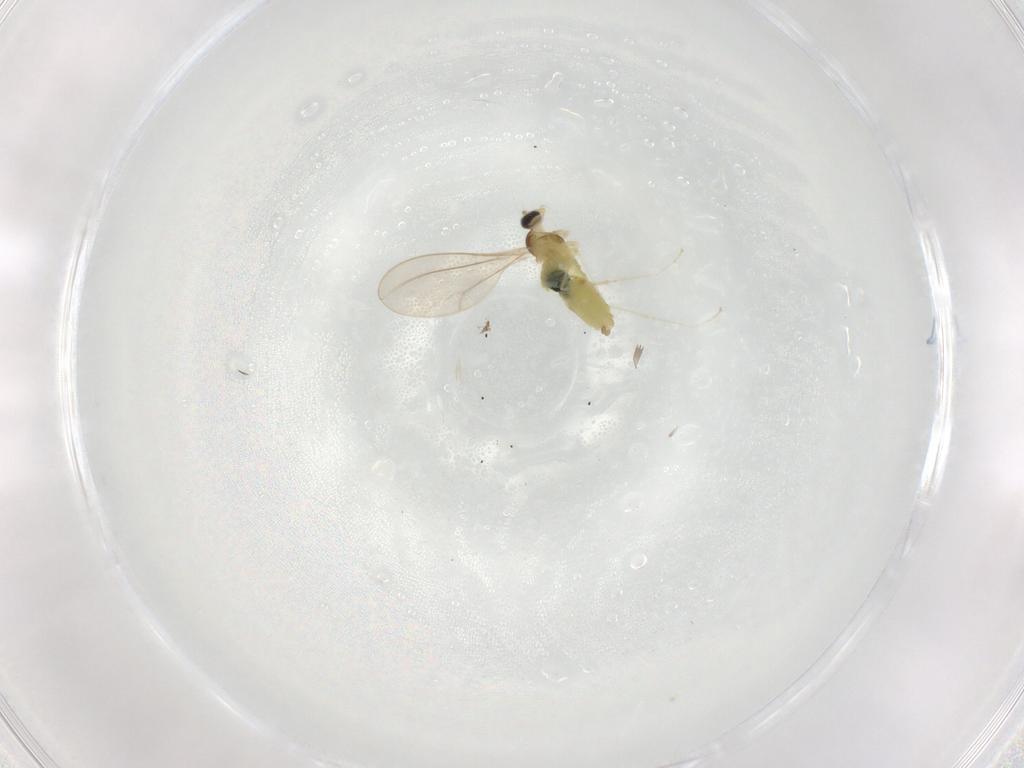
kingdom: Animalia
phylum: Arthropoda
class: Insecta
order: Diptera
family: Cecidomyiidae
